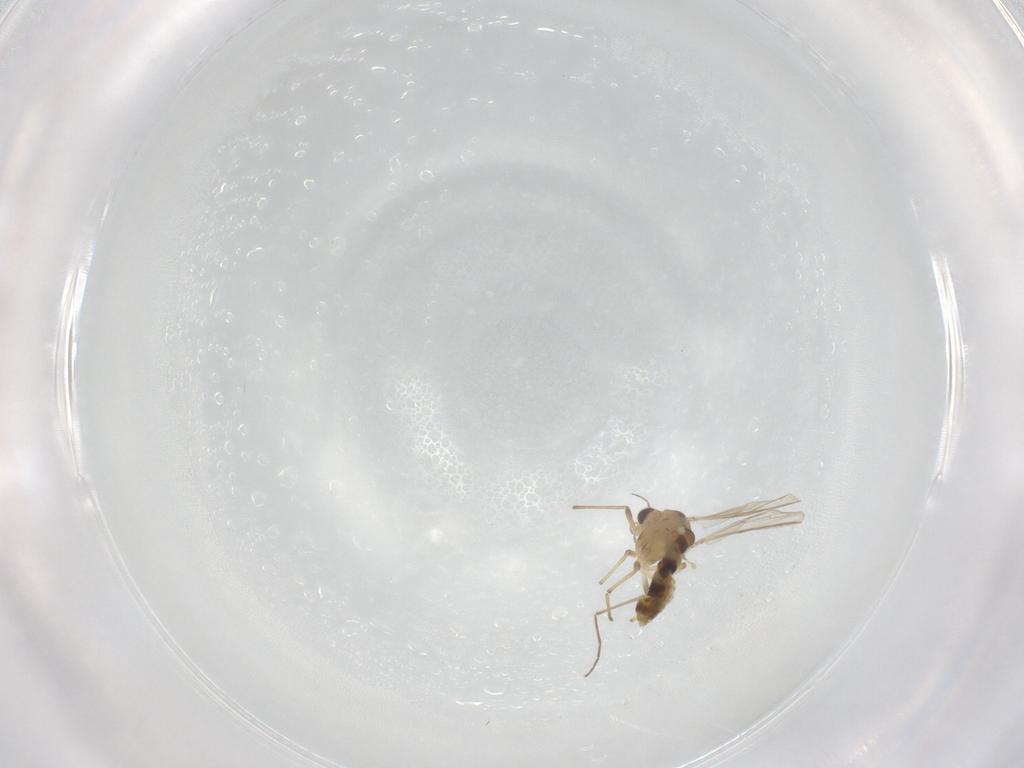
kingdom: Animalia
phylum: Arthropoda
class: Insecta
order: Diptera
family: Chironomidae
